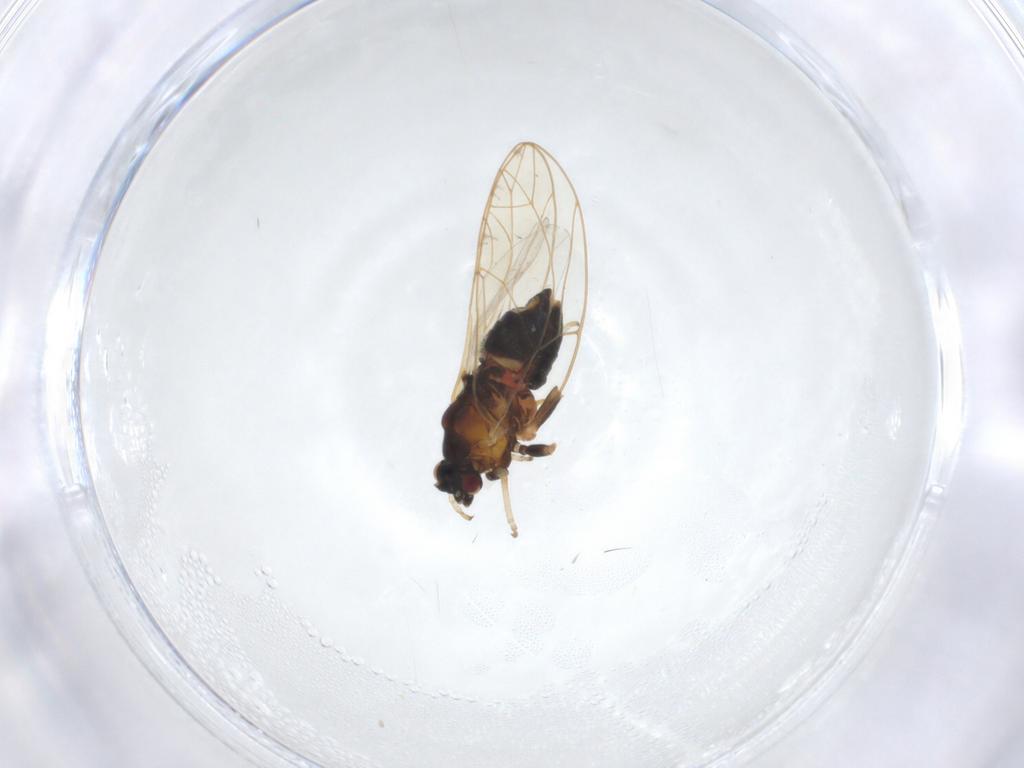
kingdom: Animalia
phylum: Arthropoda
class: Insecta
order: Hemiptera
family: Triozidae
